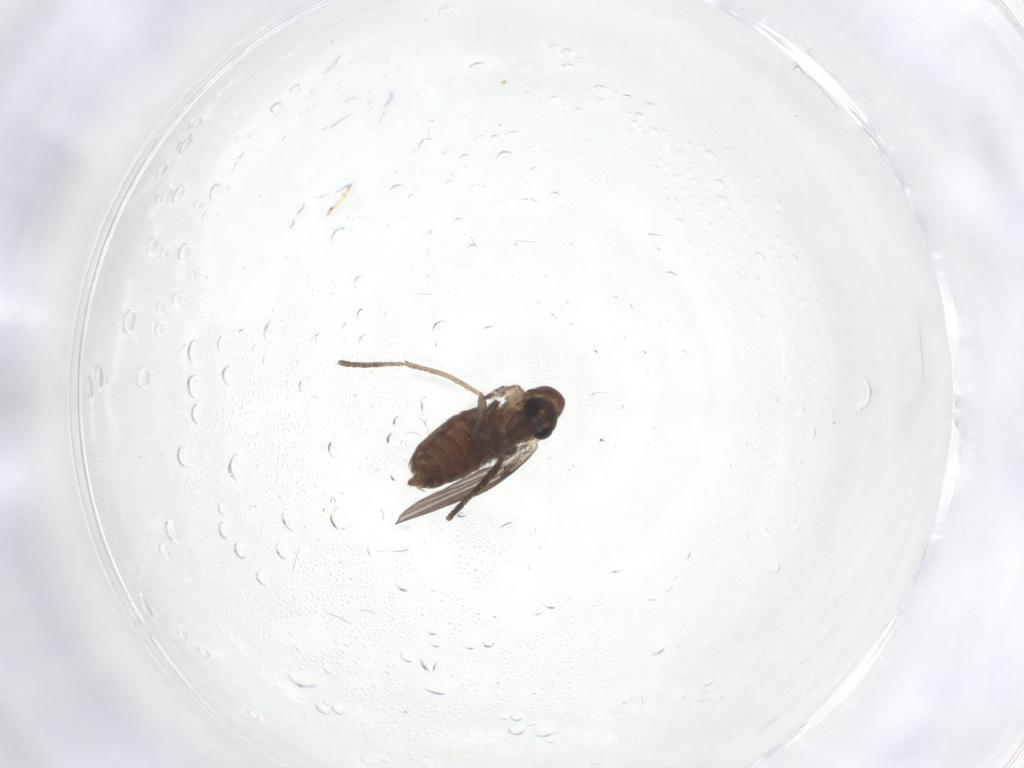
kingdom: Animalia
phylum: Arthropoda
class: Insecta
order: Diptera
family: Psychodidae
